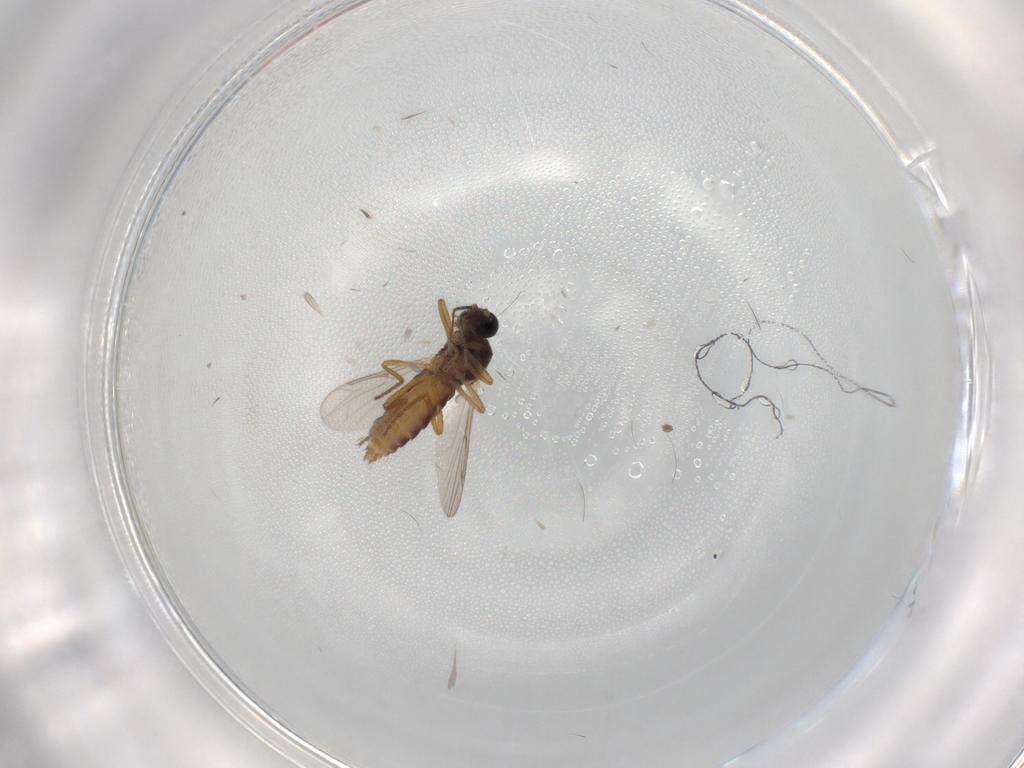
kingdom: Animalia
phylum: Arthropoda
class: Insecta
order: Diptera
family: Ceratopogonidae
